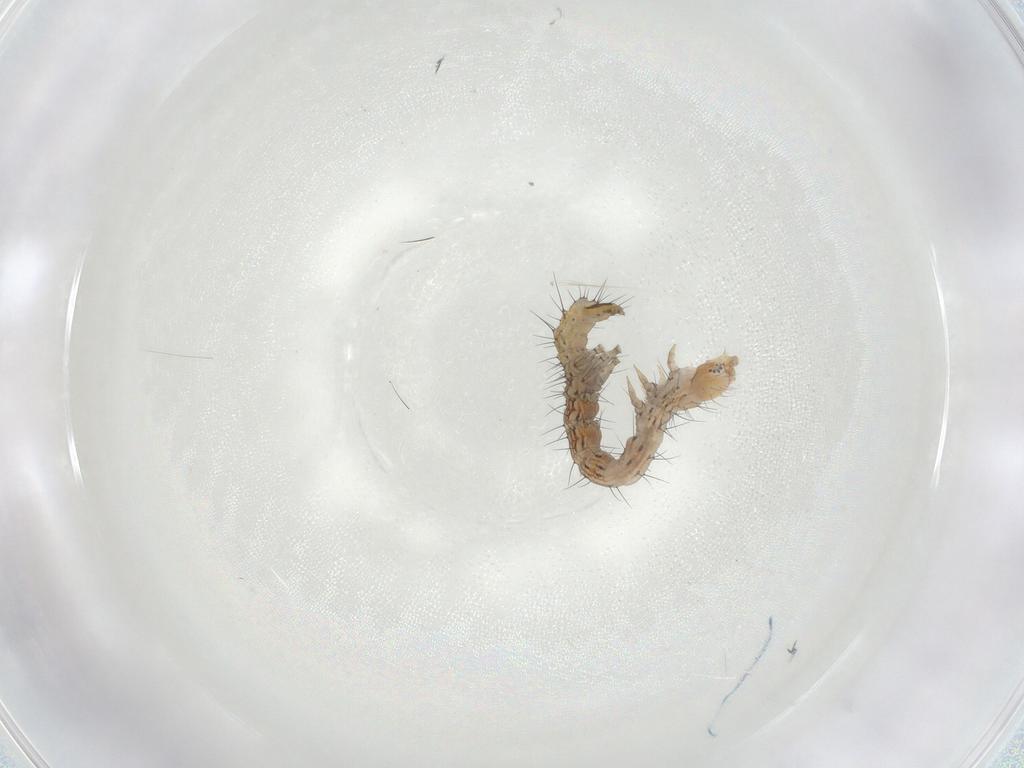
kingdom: Animalia
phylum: Arthropoda
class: Insecta
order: Lepidoptera
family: Erebidae
